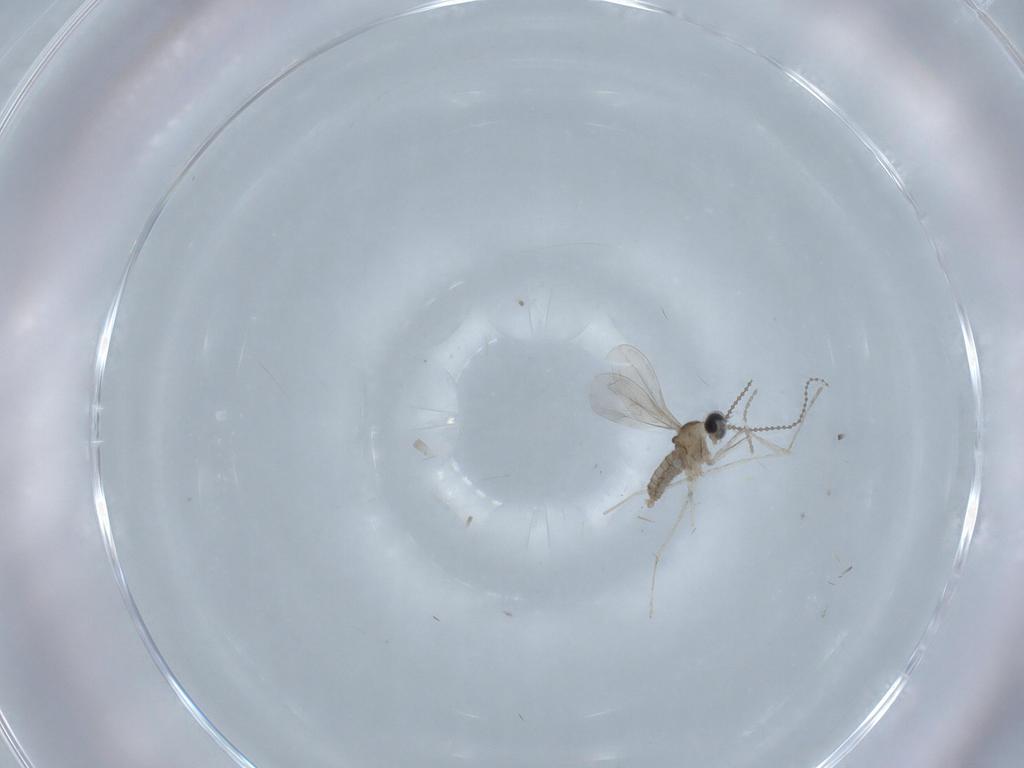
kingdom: Animalia
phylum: Arthropoda
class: Insecta
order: Diptera
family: Cecidomyiidae
